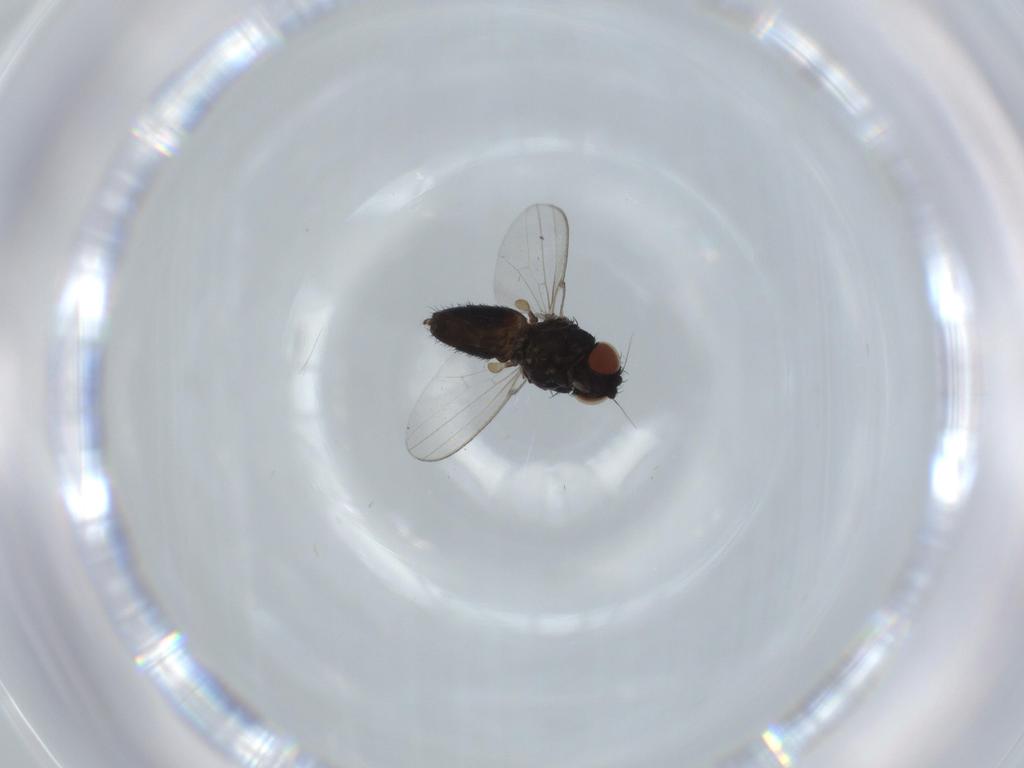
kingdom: Animalia
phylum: Arthropoda
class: Insecta
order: Diptera
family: Milichiidae
